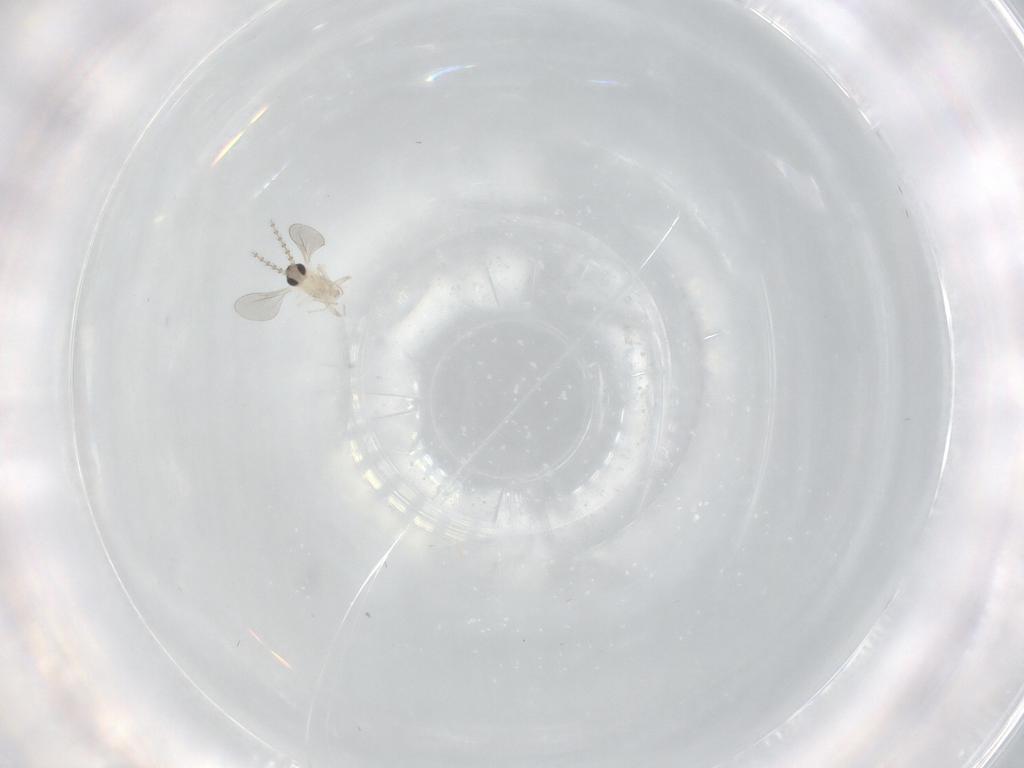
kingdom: Animalia
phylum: Arthropoda
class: Insecta
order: Diptera
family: Cecidomyiidae
